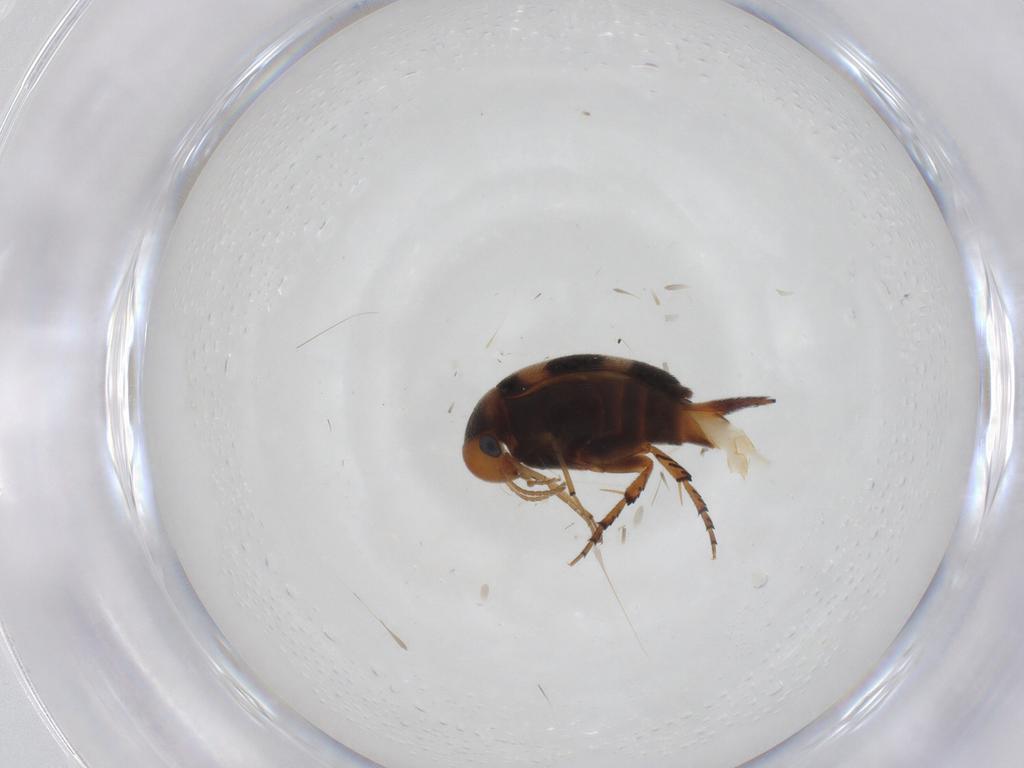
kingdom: Animalia
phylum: Arthropoda
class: Insecta
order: Coleoptera
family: Mordellidae
